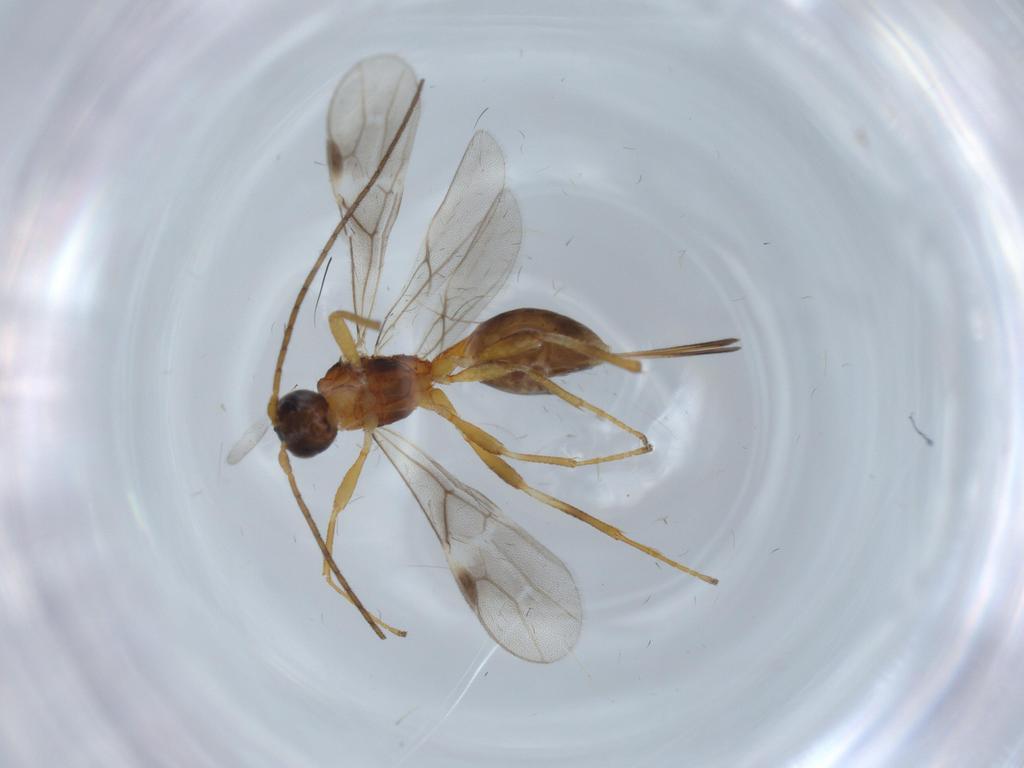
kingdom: Animalia
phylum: Arthropoda
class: Insecta
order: Hymenoptera
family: Braconidae
